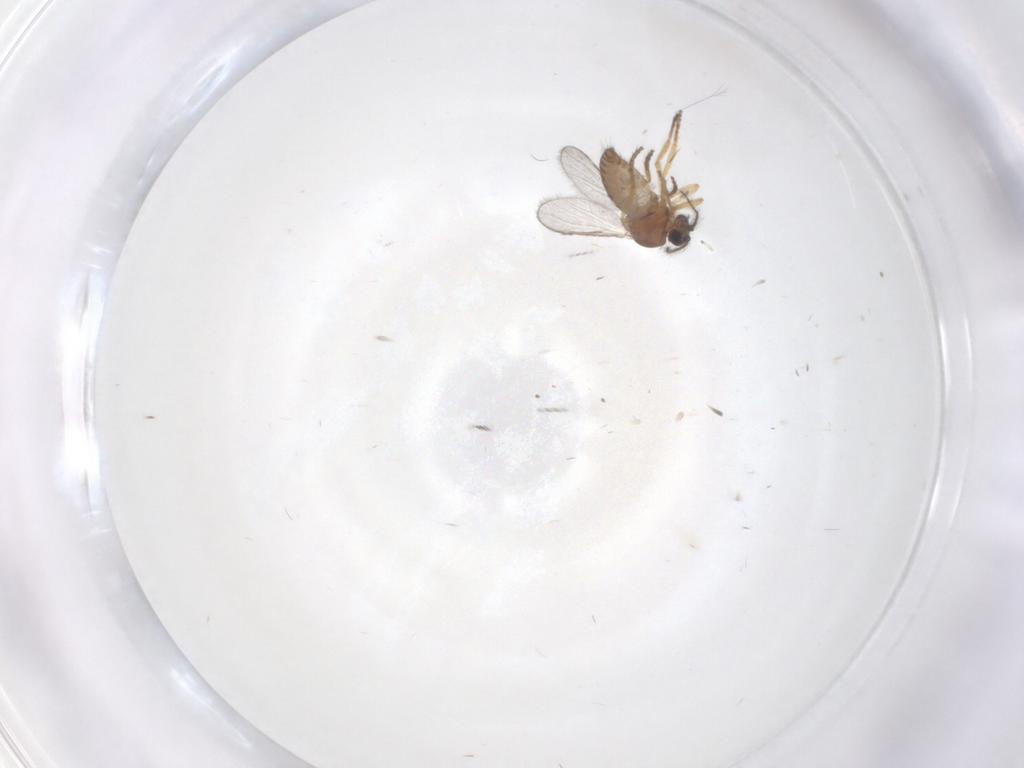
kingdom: Animalia
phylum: Arthropoda
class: Insecta
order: Diptera
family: Ceratopogonidae
